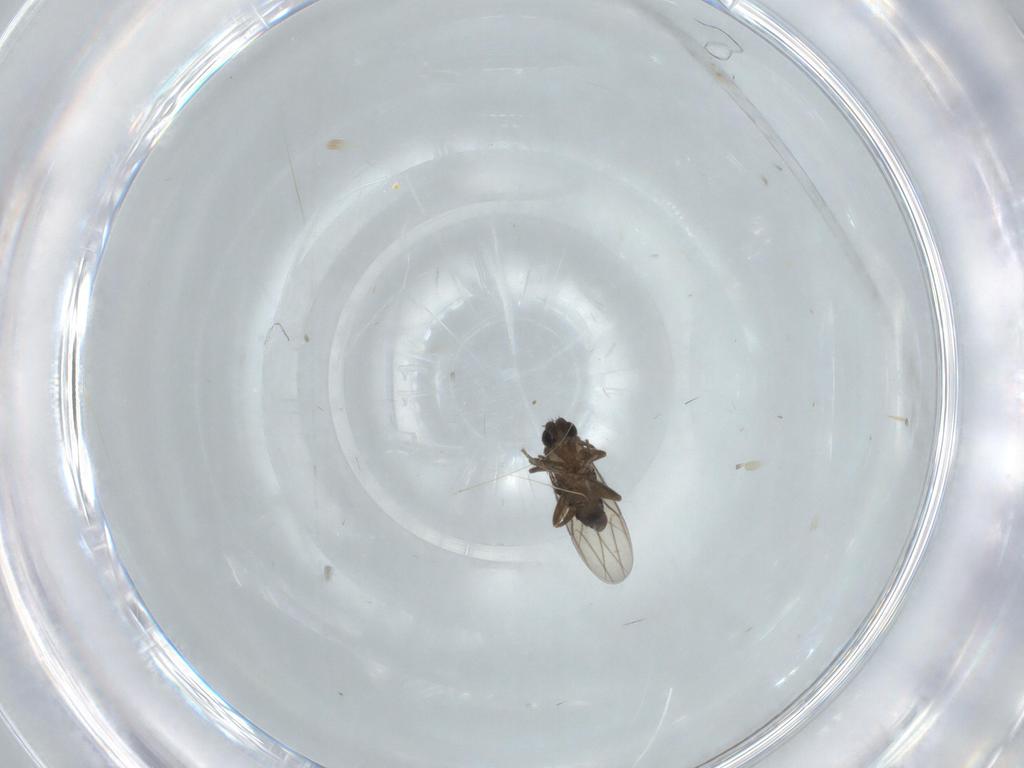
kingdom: Animalia
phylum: Arthropoda
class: Insecta
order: Diptera
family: Phoridae
